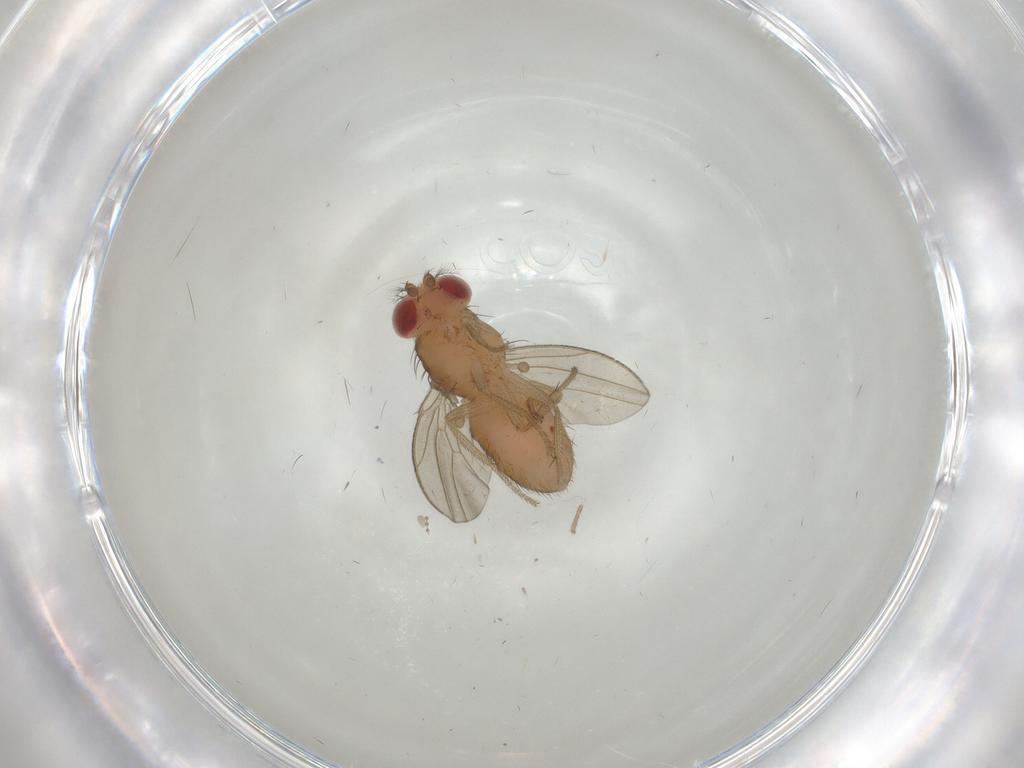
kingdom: Animalia
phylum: Arthropoda
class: Insecta
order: Diptera
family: Drosophilidae
